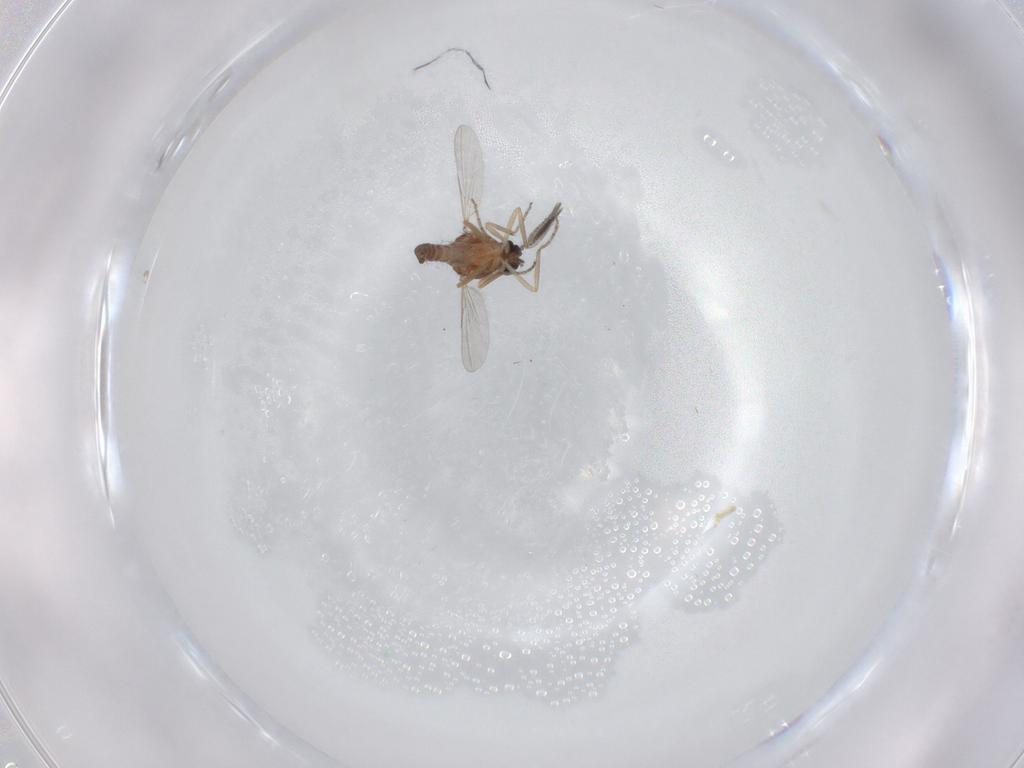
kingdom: Animalia
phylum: Arthropoda
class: Insecta
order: Diptera
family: Ceratopogonidae
